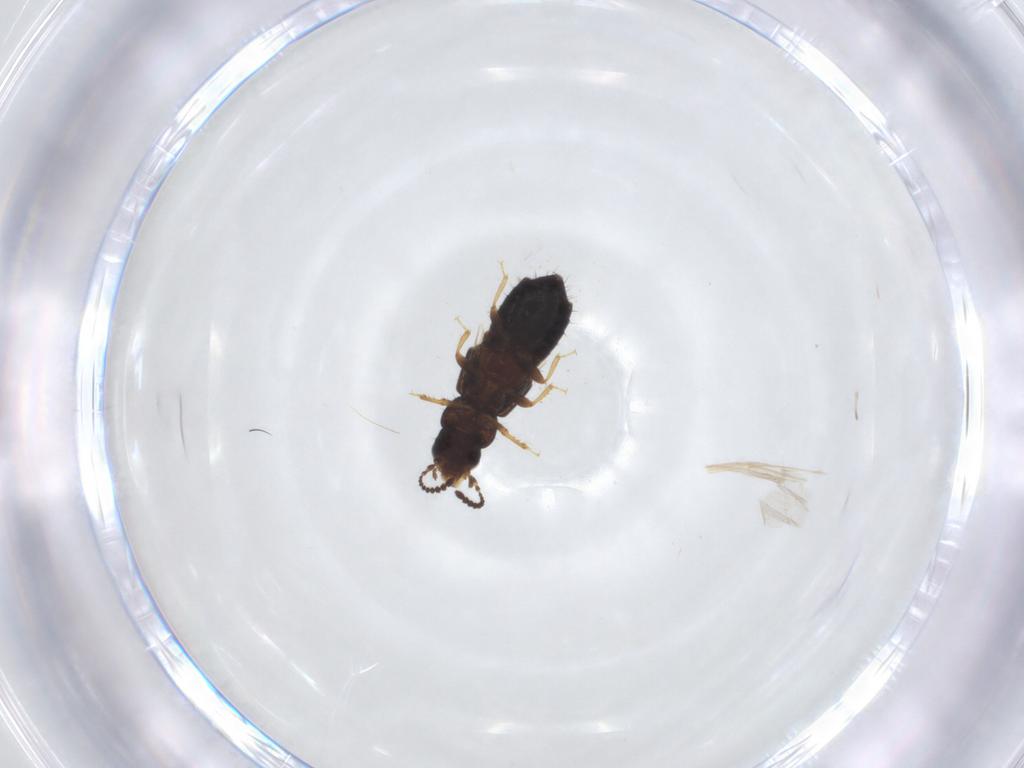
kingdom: Animalia
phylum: Arthropoda
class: Insecta
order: Coleoptera
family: Staphylinidae
